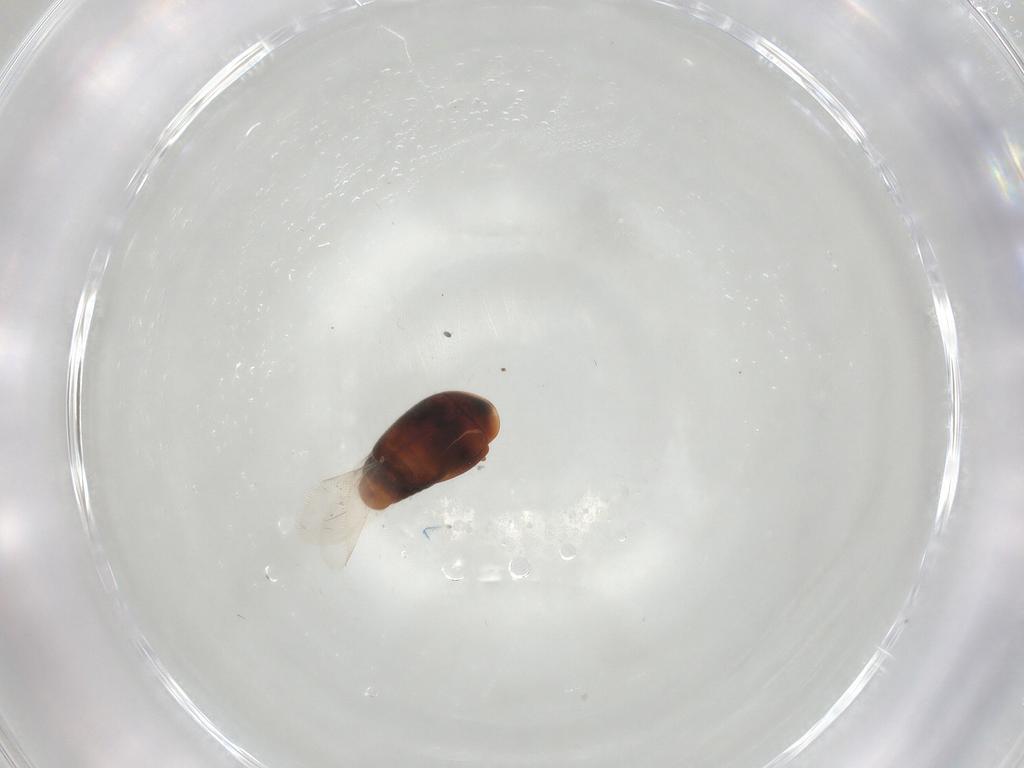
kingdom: Animalia
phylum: Arthropoda
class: Insecta
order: Coleoptera
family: Corylophidae
